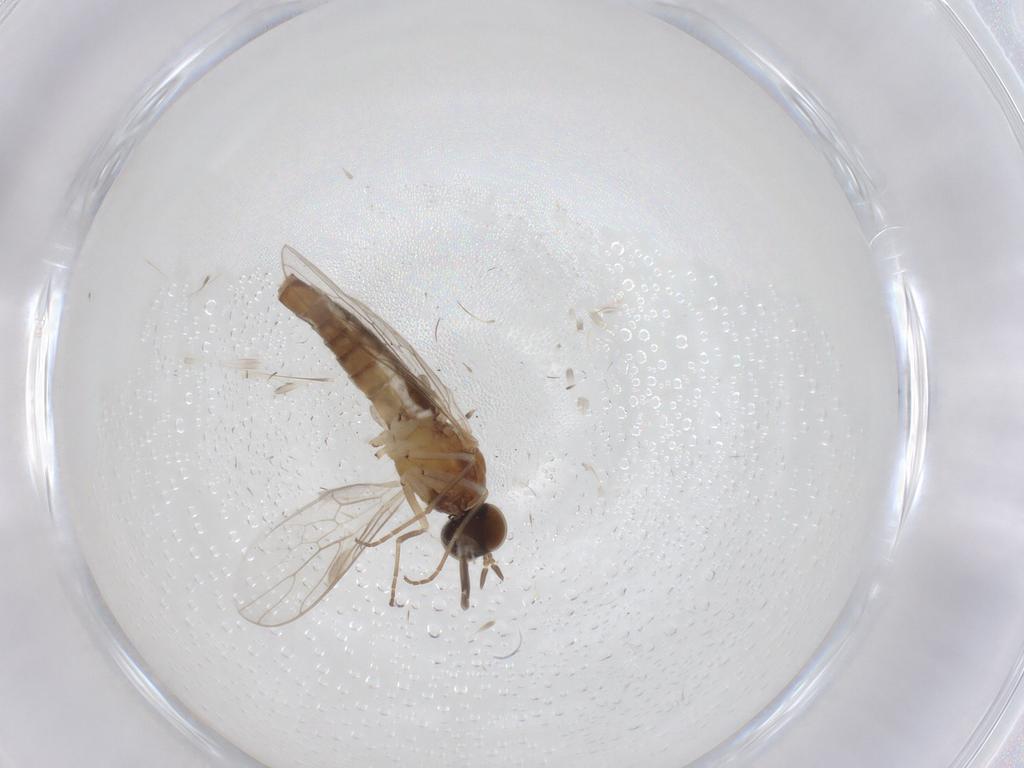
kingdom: Animalia
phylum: Arthropoda
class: Insecta
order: Diptera
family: Scenopinidae
